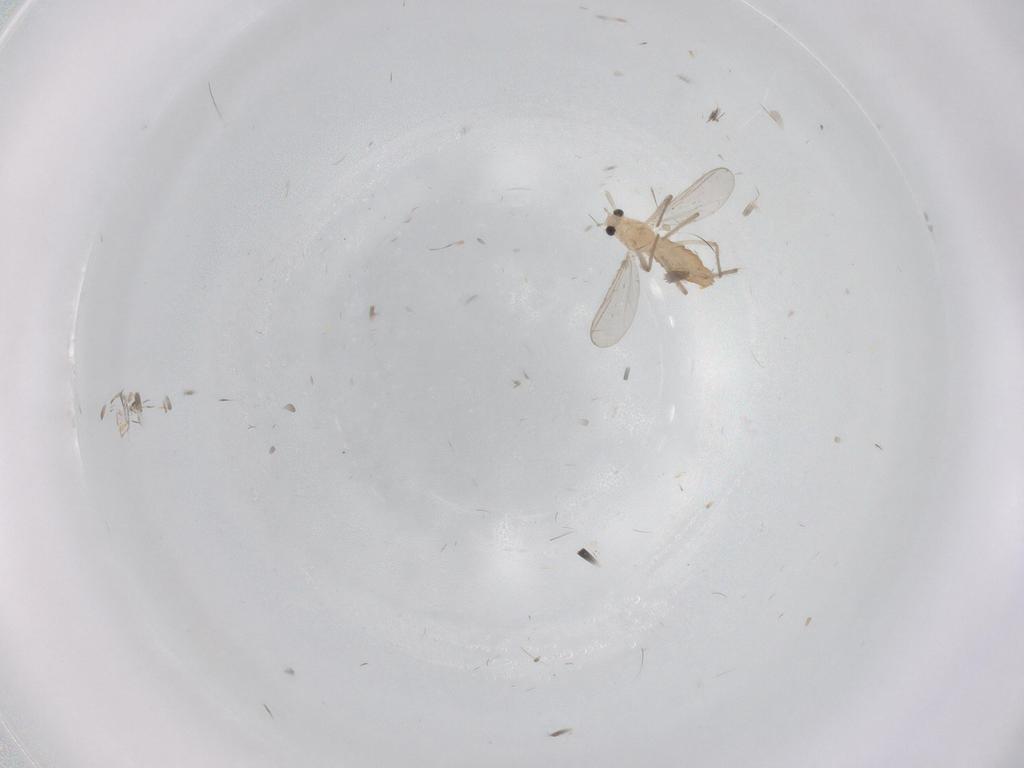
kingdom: Animalia
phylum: Arthropoda
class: Insecta
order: Diptera
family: Chironomidae
